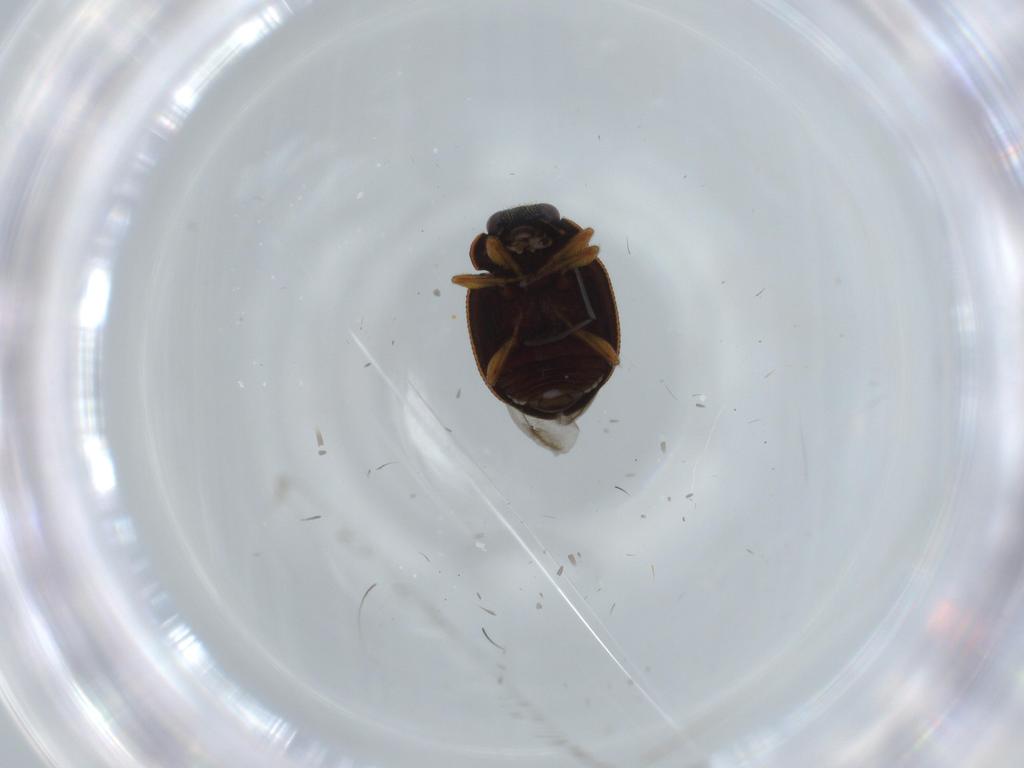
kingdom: Animalia
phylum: Arthropoda
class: Insecta
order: Coleoptera
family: Coccinellidae
